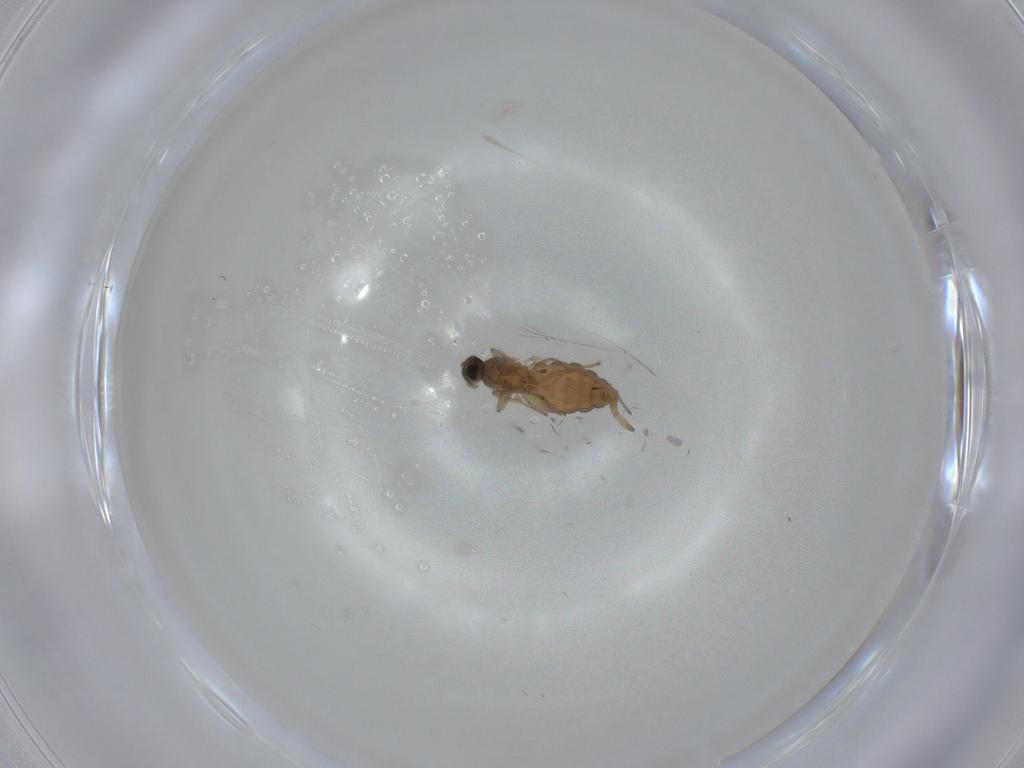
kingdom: Animalia
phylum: Arthropoda
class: Insecta
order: Diptera
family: Cecidomyiidae
